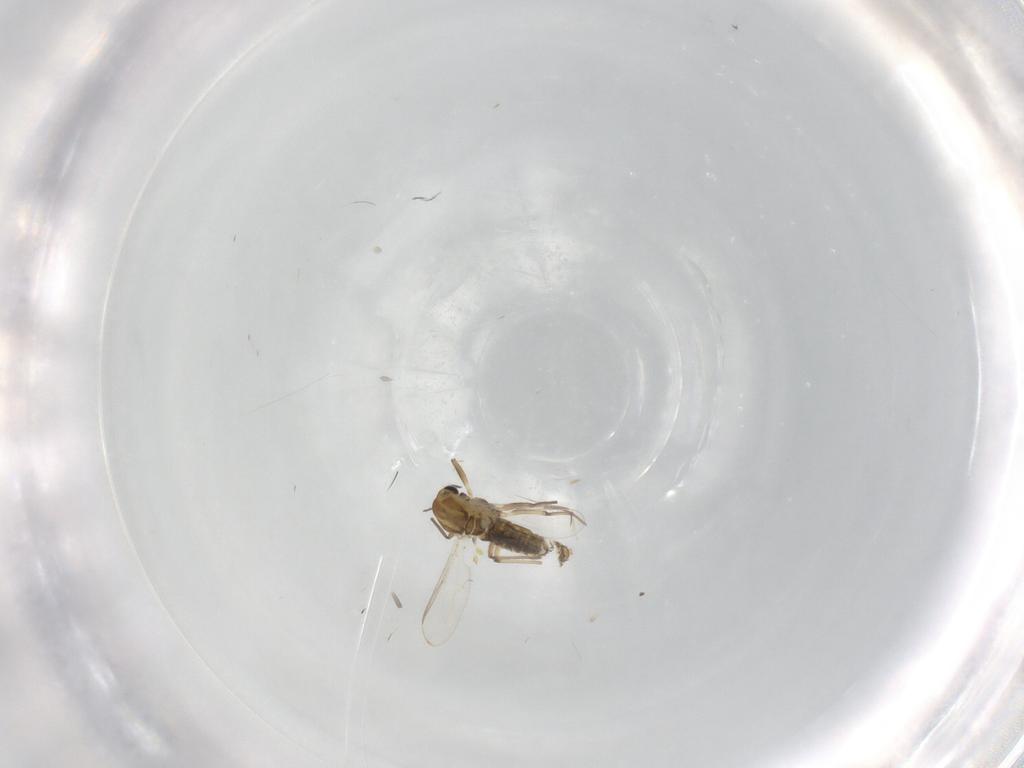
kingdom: Animalia
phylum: Arthropoda
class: Insecta
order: Diptera
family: Chironomidae
